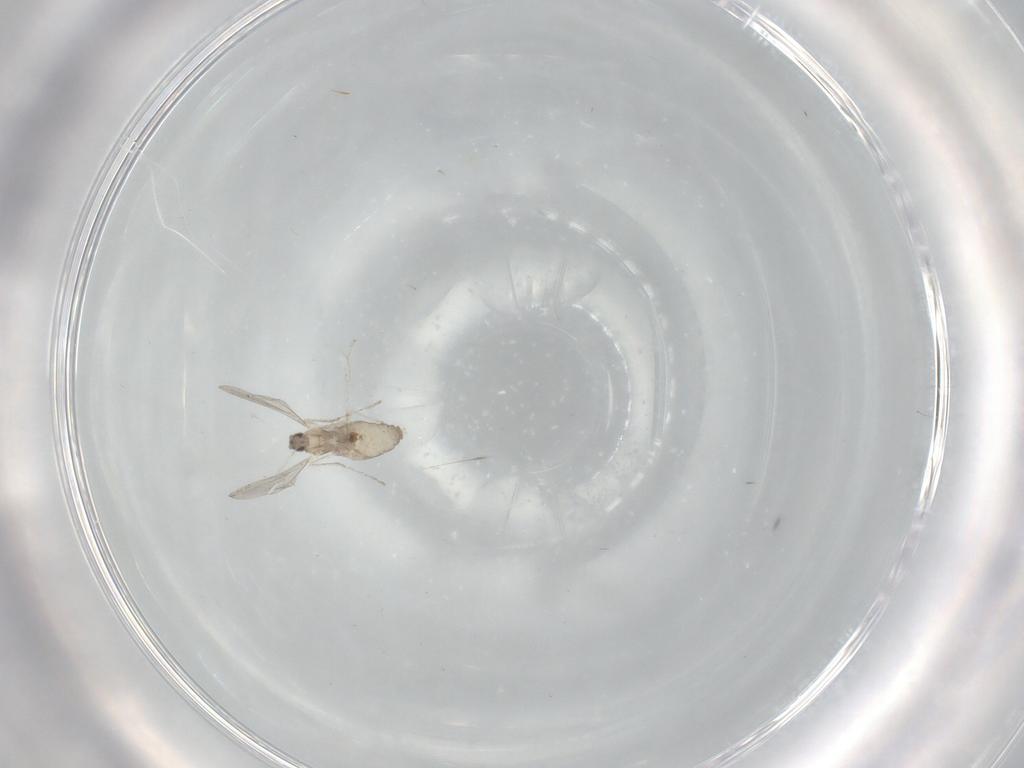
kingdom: Animalia
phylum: Arthropoda
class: Insecta
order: Diptera
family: Cecidomyiidae
